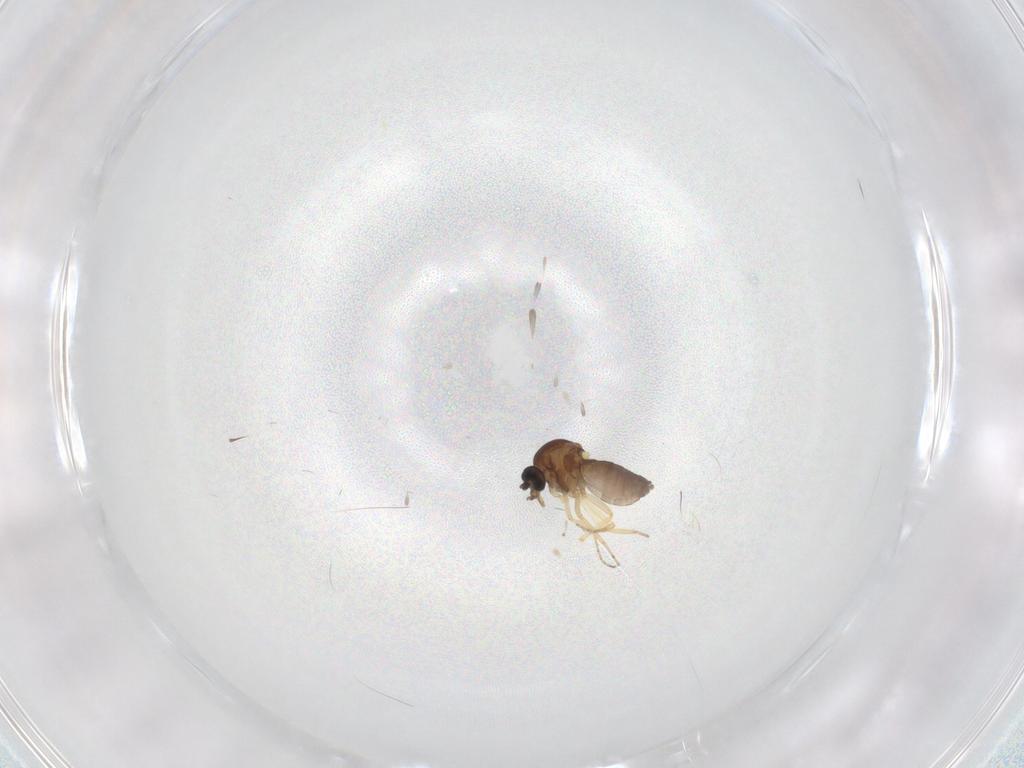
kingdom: Animalia
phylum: Arthropoda
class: Insecta
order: Diptera
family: Ceratopogonidae
